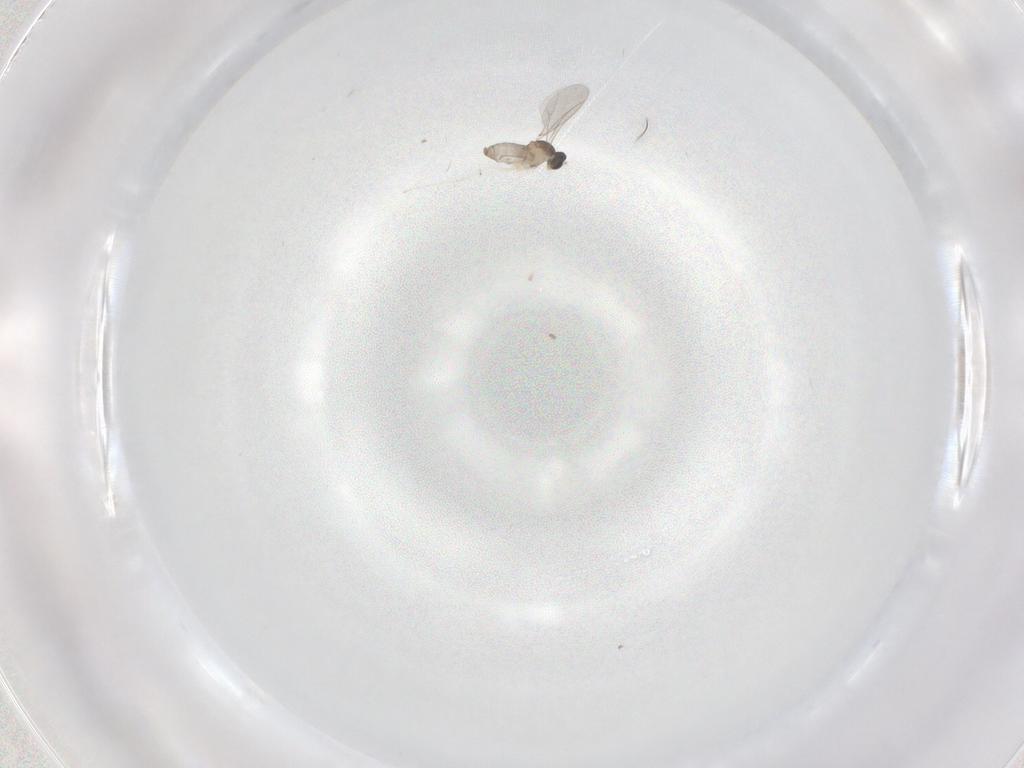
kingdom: Animalia
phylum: Arthropoda
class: Insecta
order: Diptera
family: Cecidomyiidae
